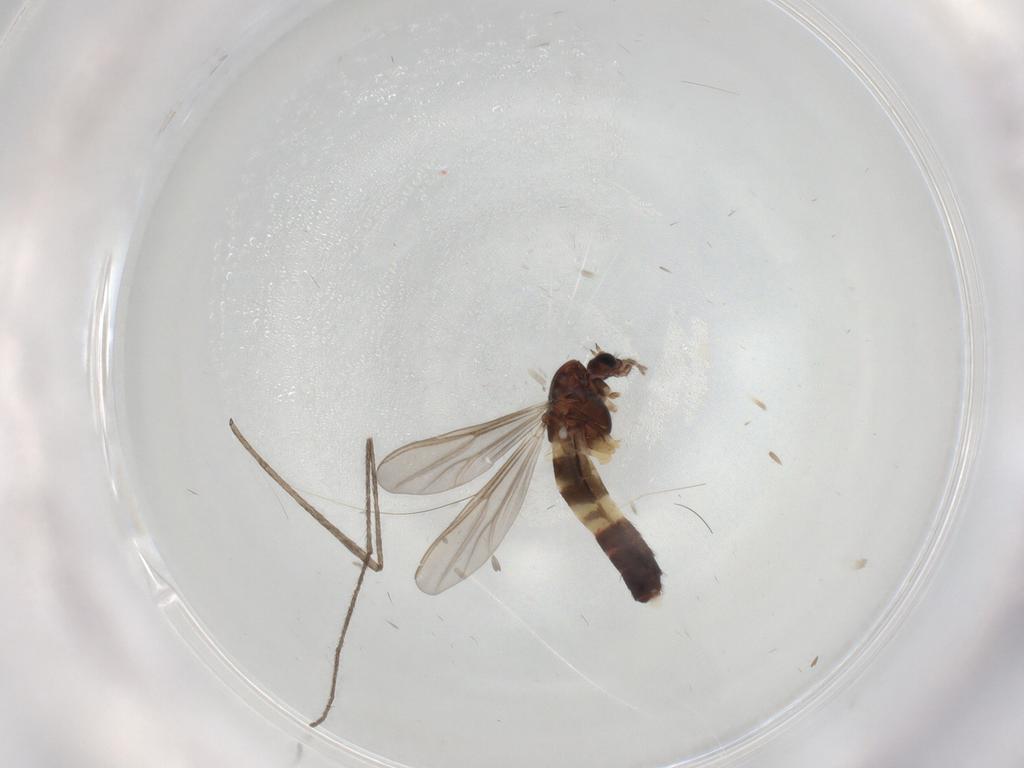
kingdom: Animalia
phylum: Arthropoda
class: Insecta
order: Diptera
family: Limoniidae
